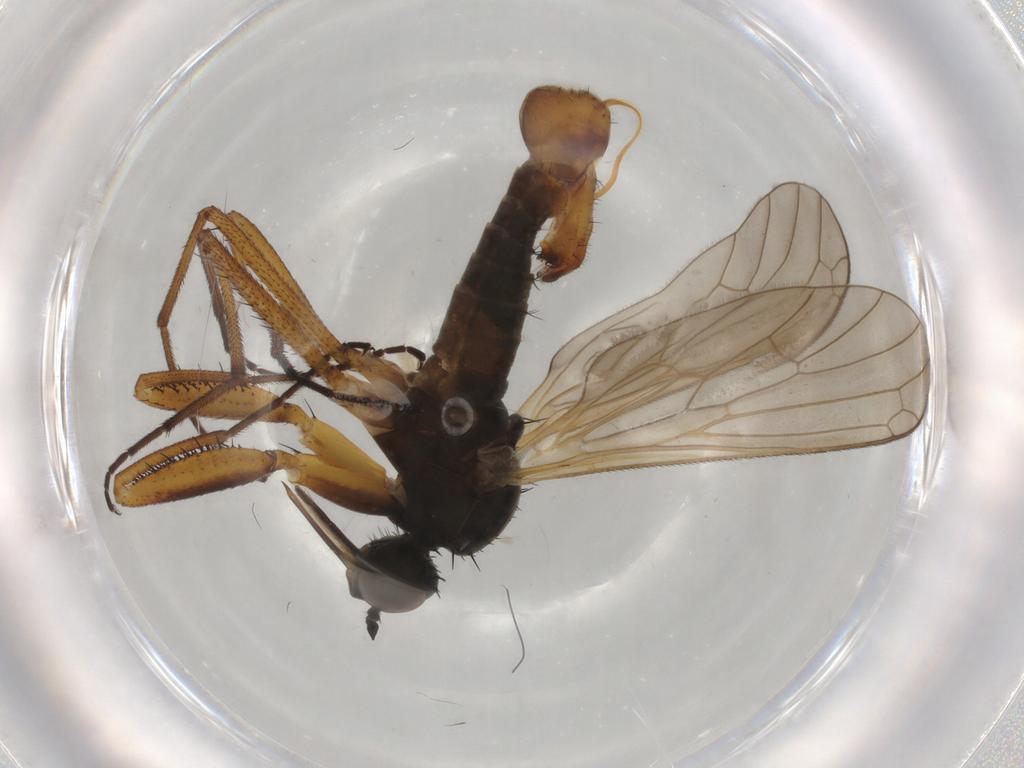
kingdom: Animalia
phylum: Arthropoda
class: Insecta
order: Diptera
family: Empididae
